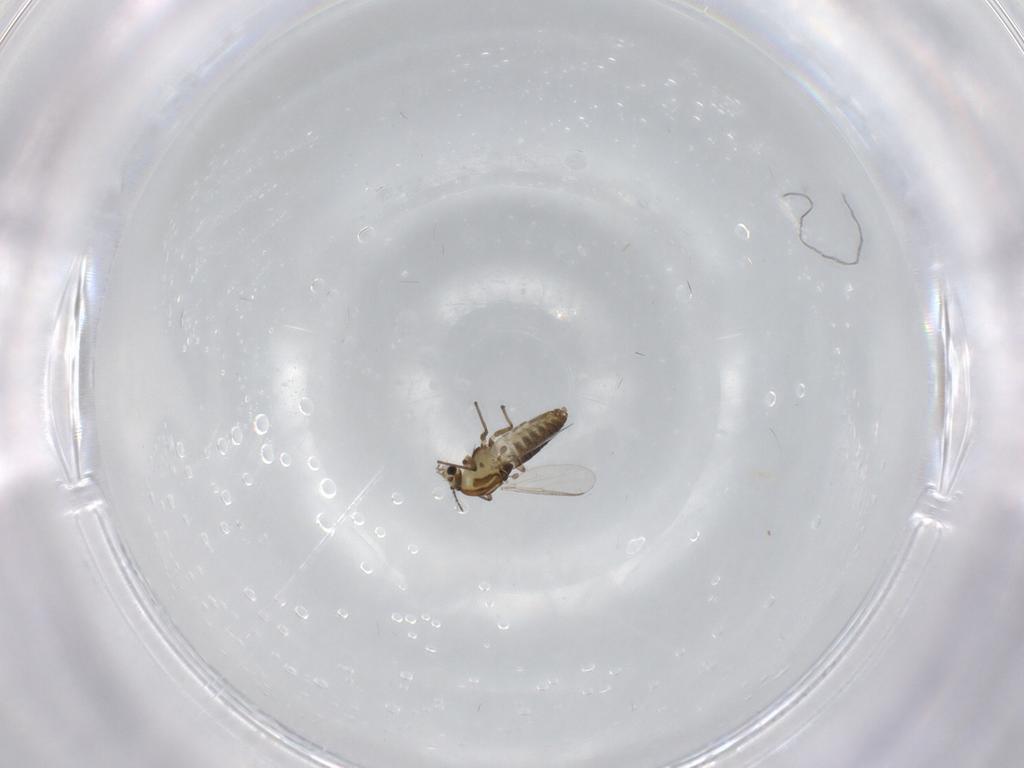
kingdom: Animalia
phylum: Arthropoda
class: Insecta
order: Diptera
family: Chironomidae
